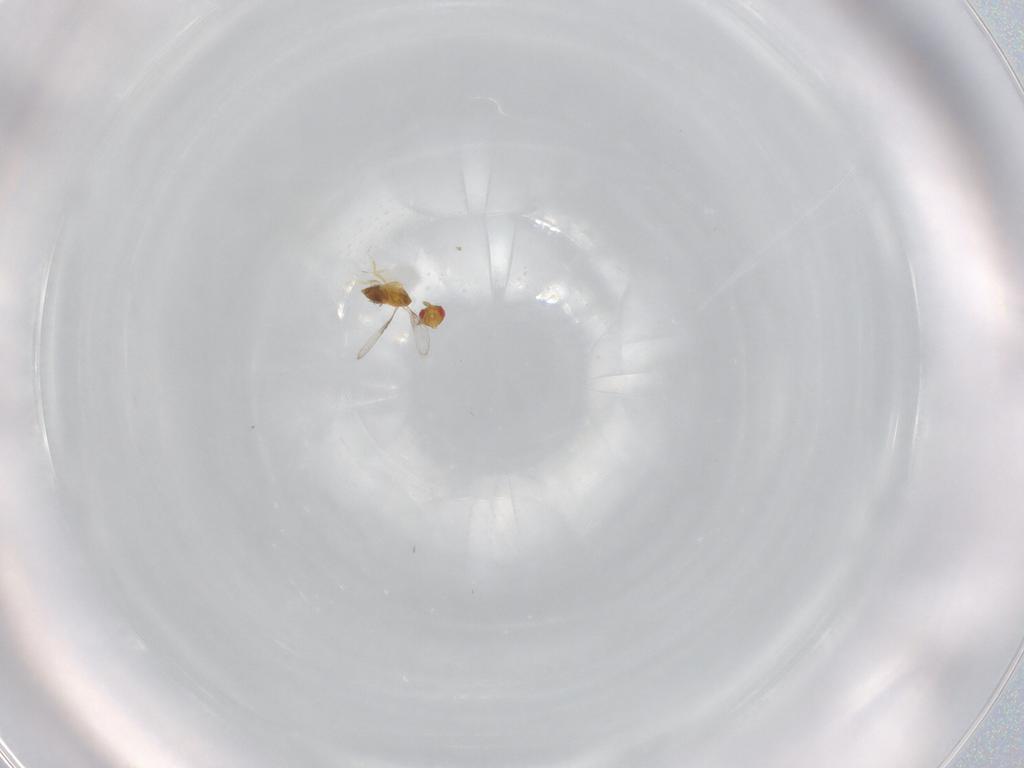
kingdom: Animalia
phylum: Arthropoda
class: Insecta
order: Hymenoptera
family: Trichogrammatidae
